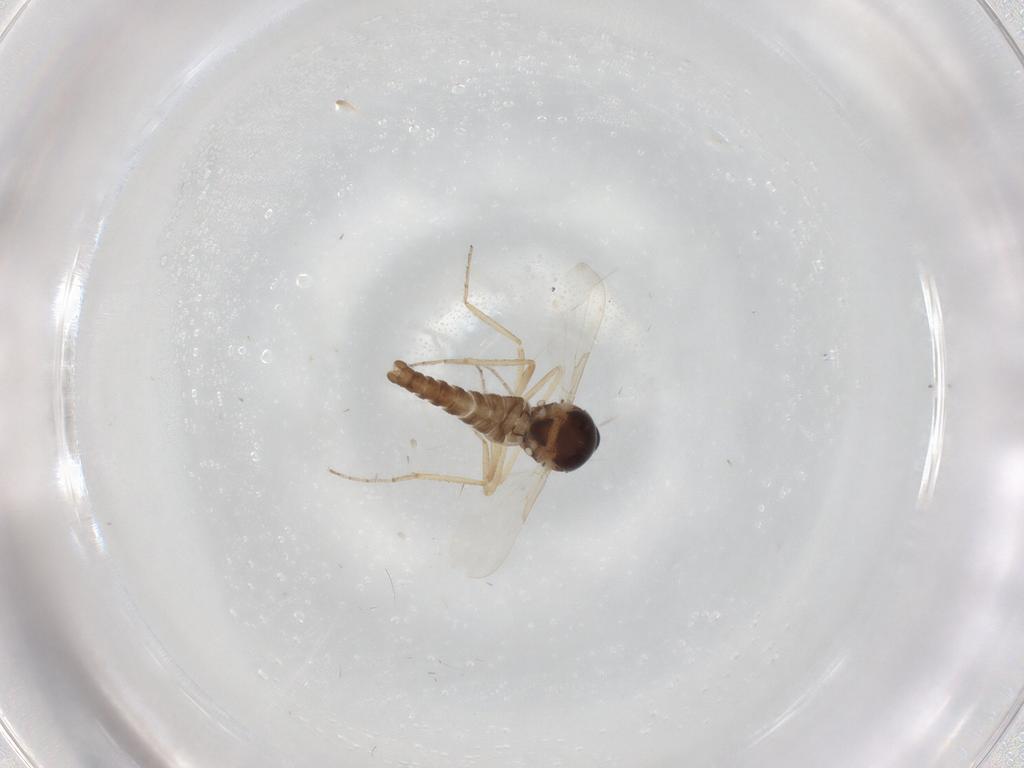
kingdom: Animalia
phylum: Arthropoda
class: Insecta
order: Diptera
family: Ceratopogonidae
